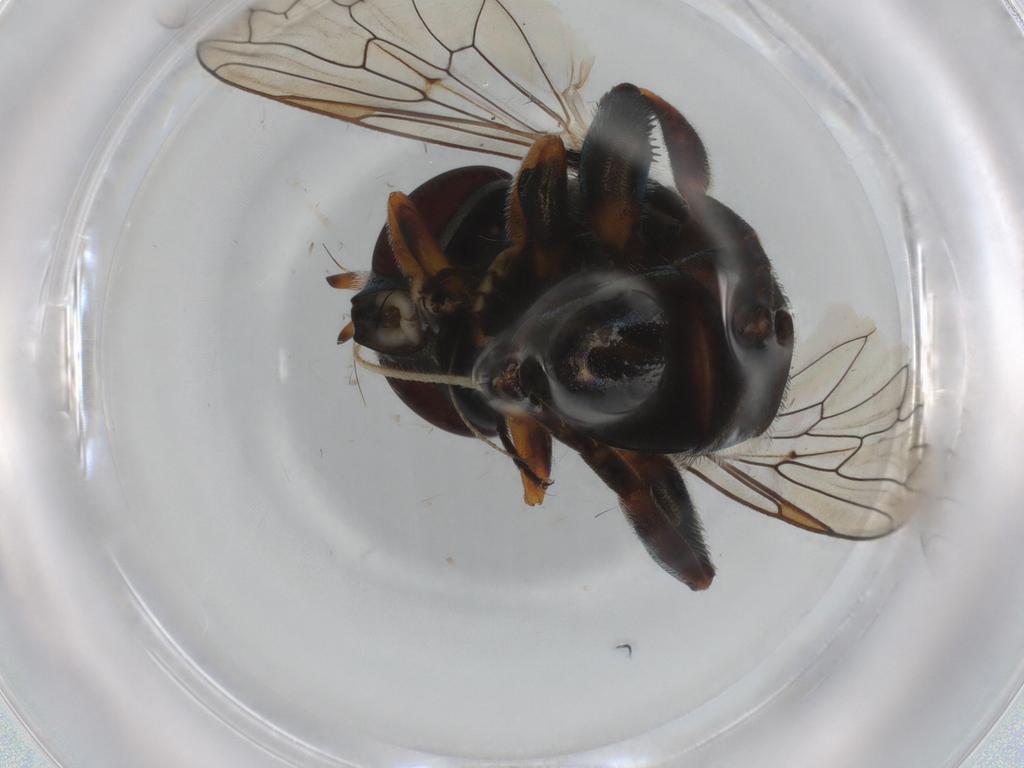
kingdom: Animalia
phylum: Arthropoda
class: Insecta
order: Diptera
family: Syrphidae
